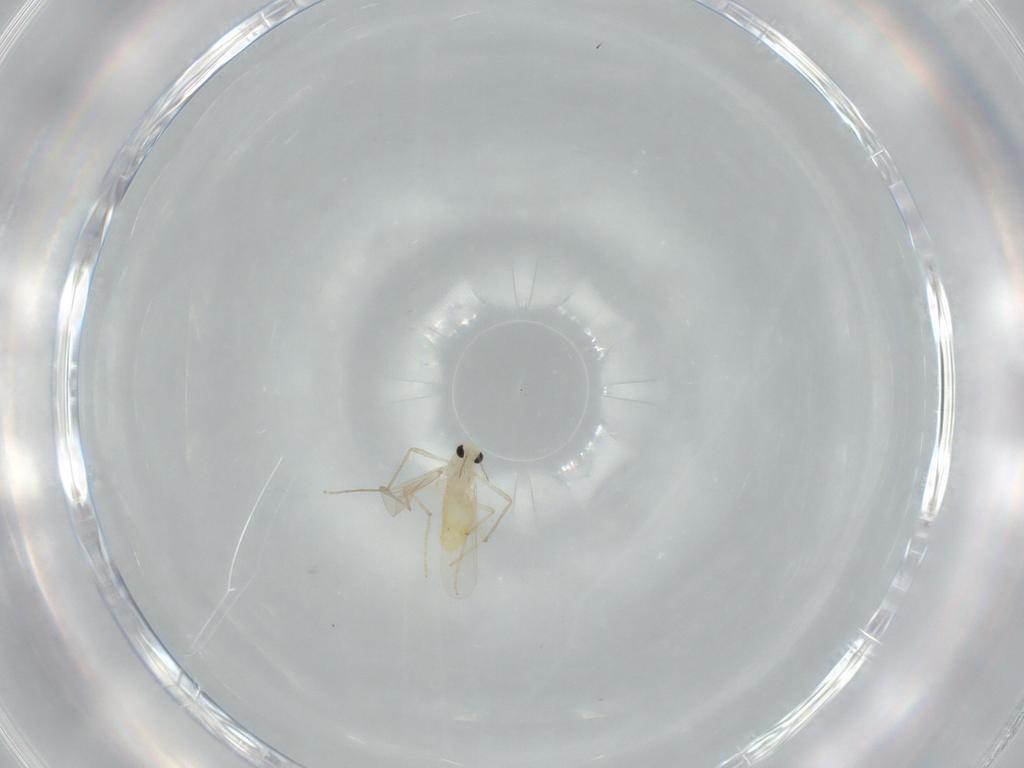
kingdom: Animalia
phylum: Arthropoda
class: Insecta
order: Diptera
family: Chironomidae
